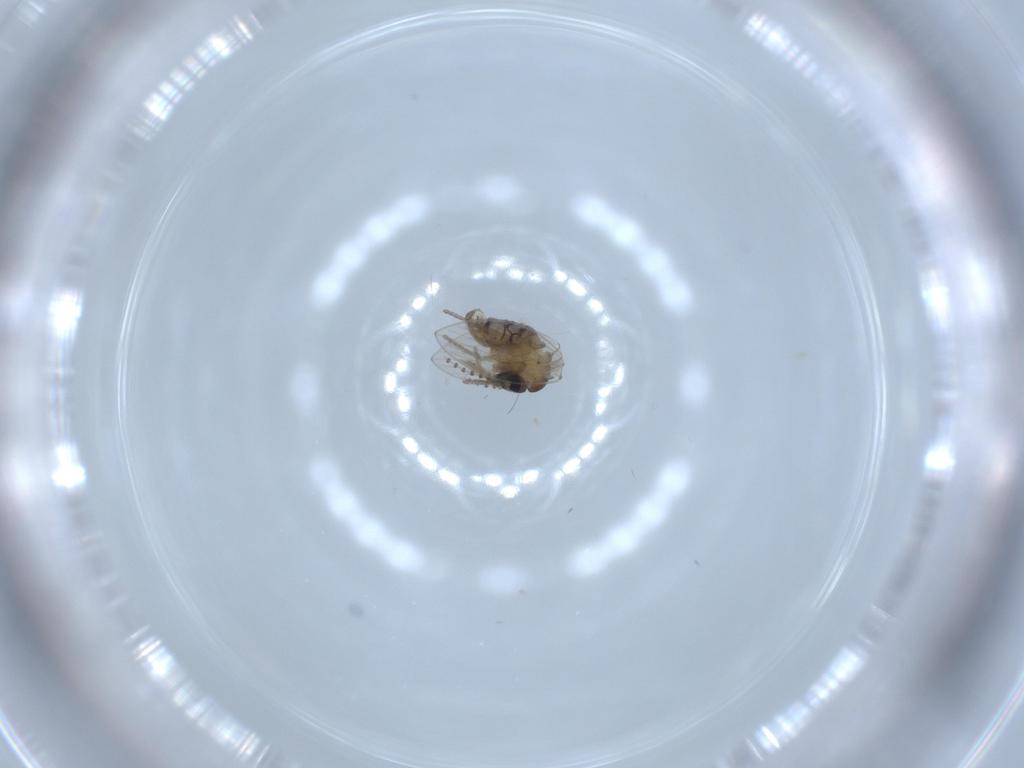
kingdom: Animalia
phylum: Arthropoda
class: Insecta
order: Diptera
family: Psychodidae
